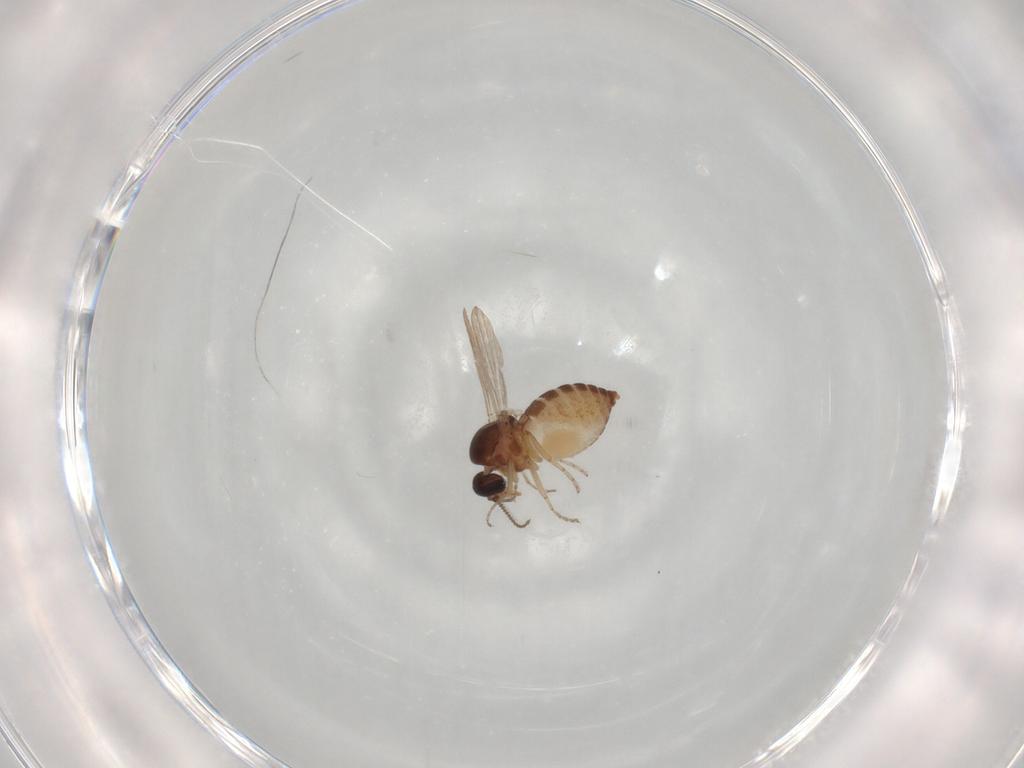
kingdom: Animalia
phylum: Arthropoda
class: Insecta
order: Diptera
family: Ceratopogonidae
